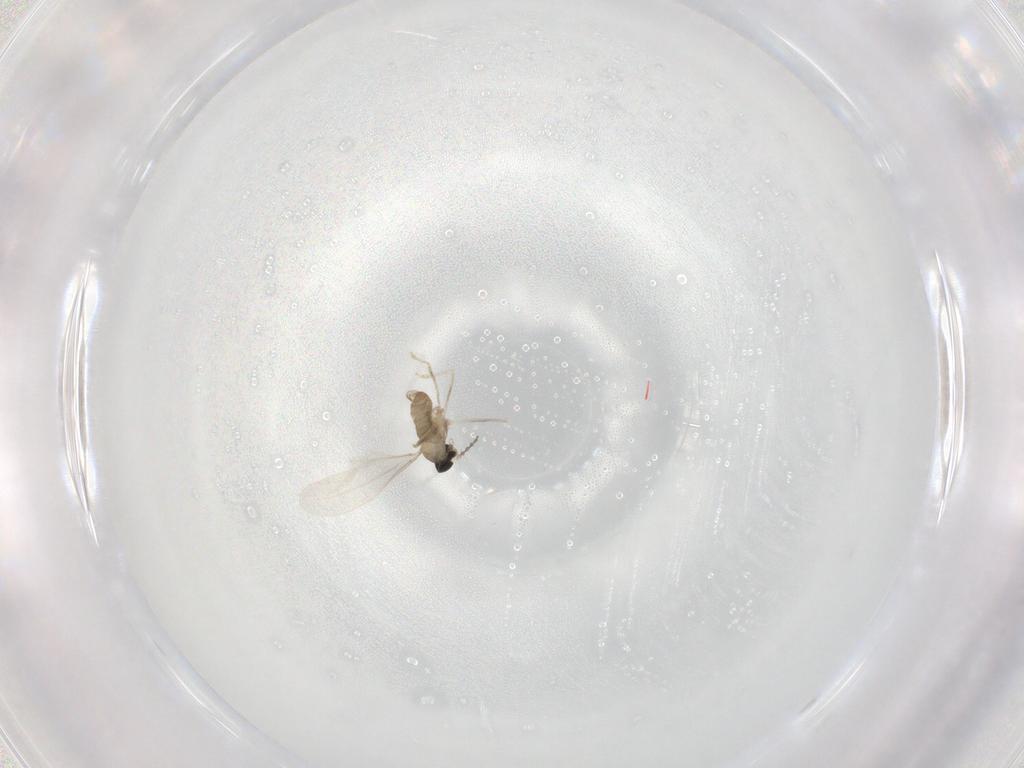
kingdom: Animalia
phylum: Arthropoda
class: Insecta
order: Diptera
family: Cecidomyiidae
